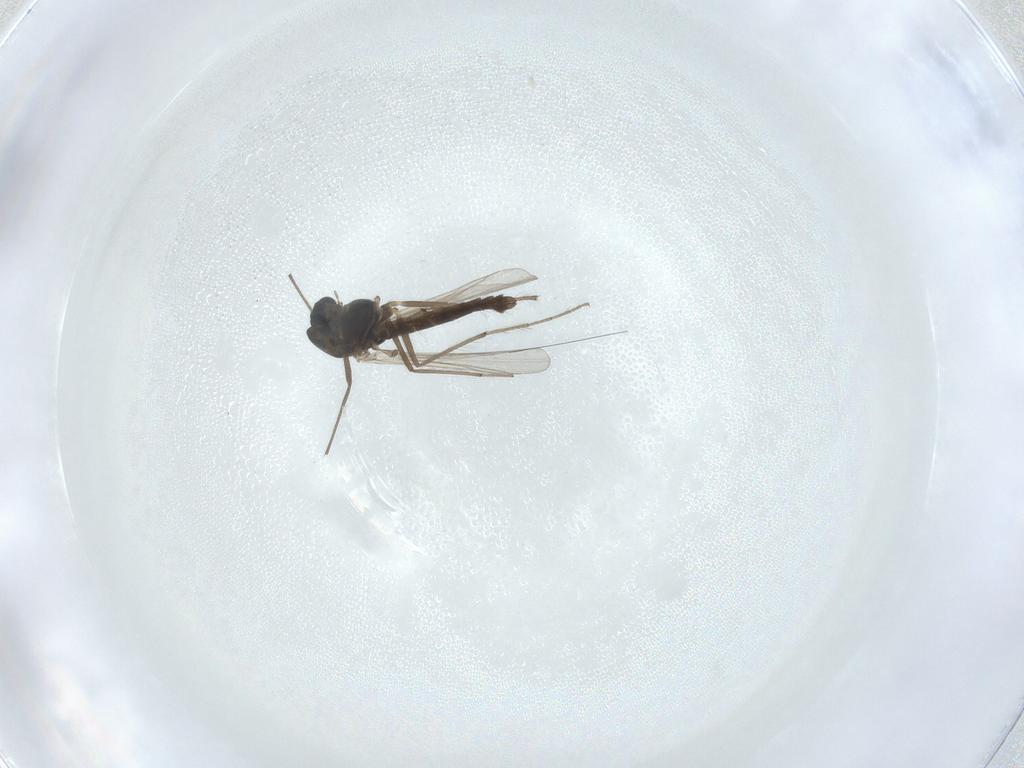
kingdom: Animalia
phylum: Arthropoda
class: Insecta
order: Diptera
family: Chironomidae
